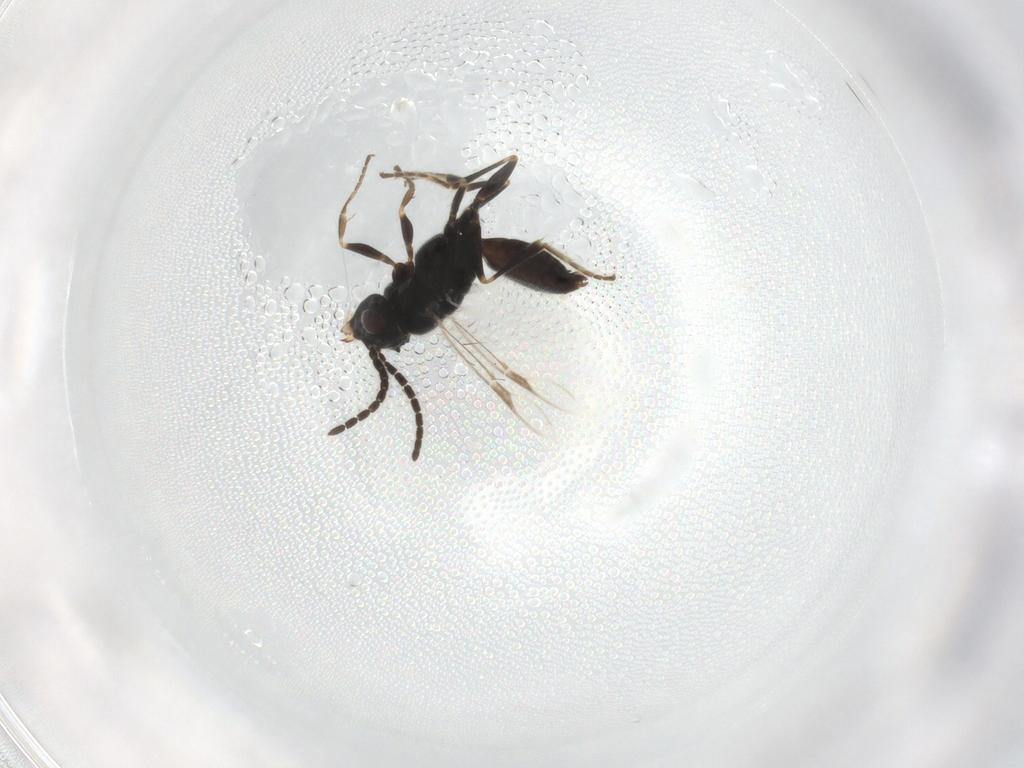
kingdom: Animalia
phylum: Arthropoda
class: Insecta
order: Hymenoptera
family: Dryinidae
